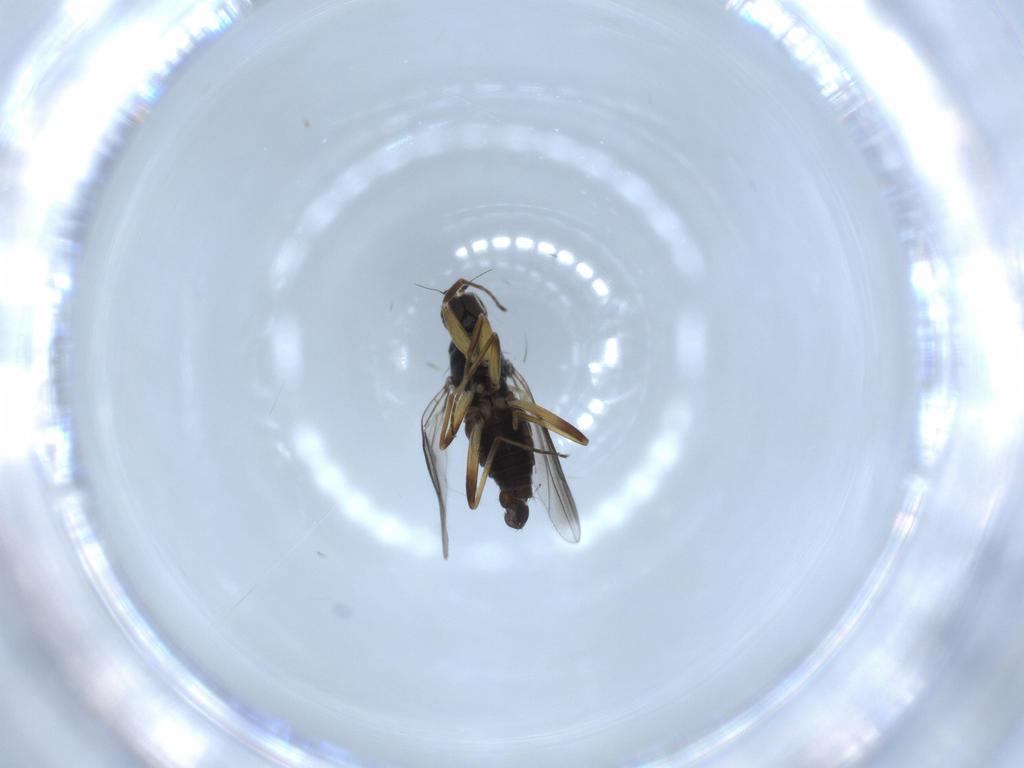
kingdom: Animalia
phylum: Arthropoda
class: Insecta
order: Diptera
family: Hybotidae
